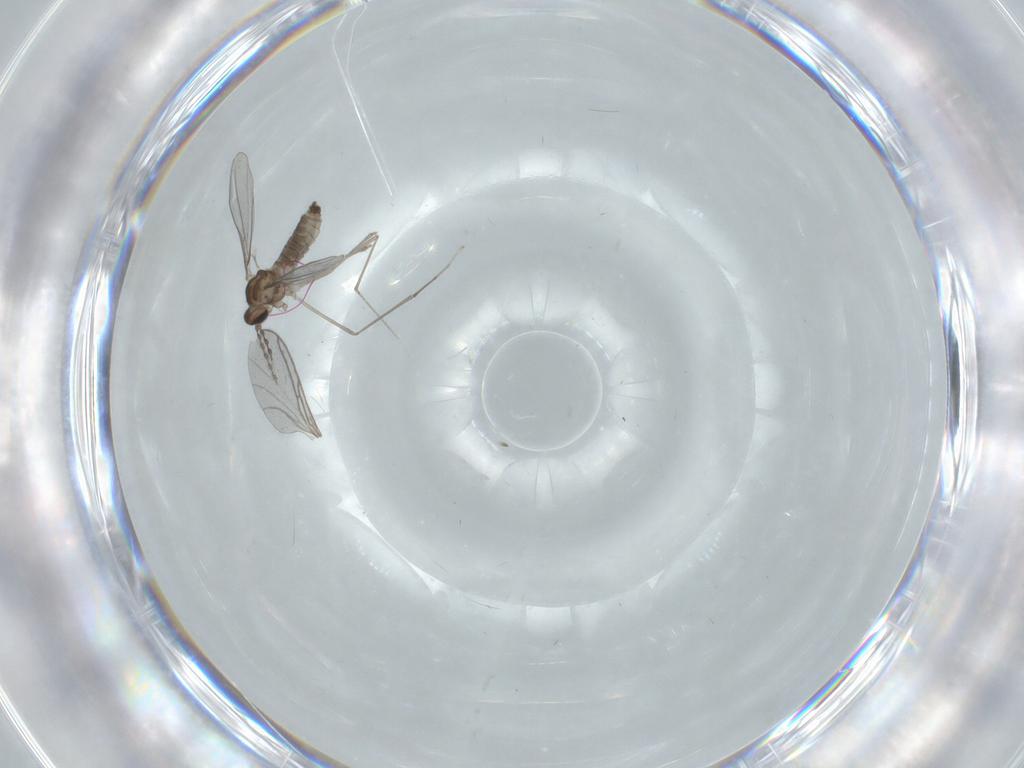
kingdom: Animalia
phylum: Arthropoda
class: Insecta
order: Diptera
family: Cecidomyiidae
